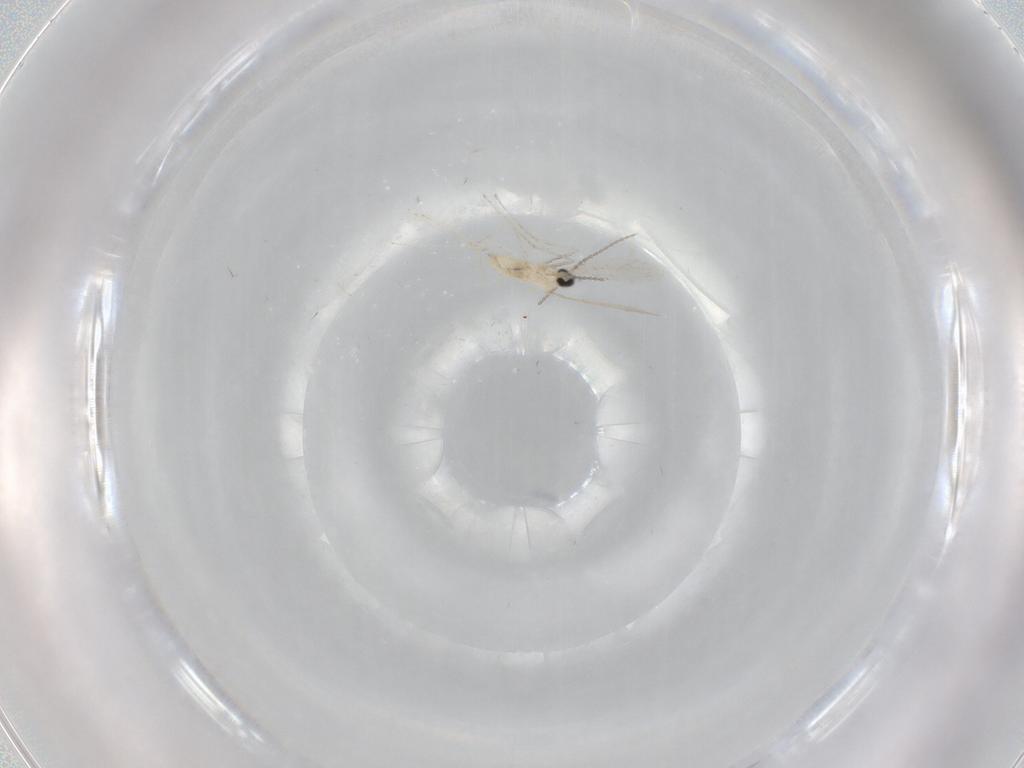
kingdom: Animalia
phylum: Arthropoda
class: Insecta
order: Diptera
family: Cecidomyiidae
